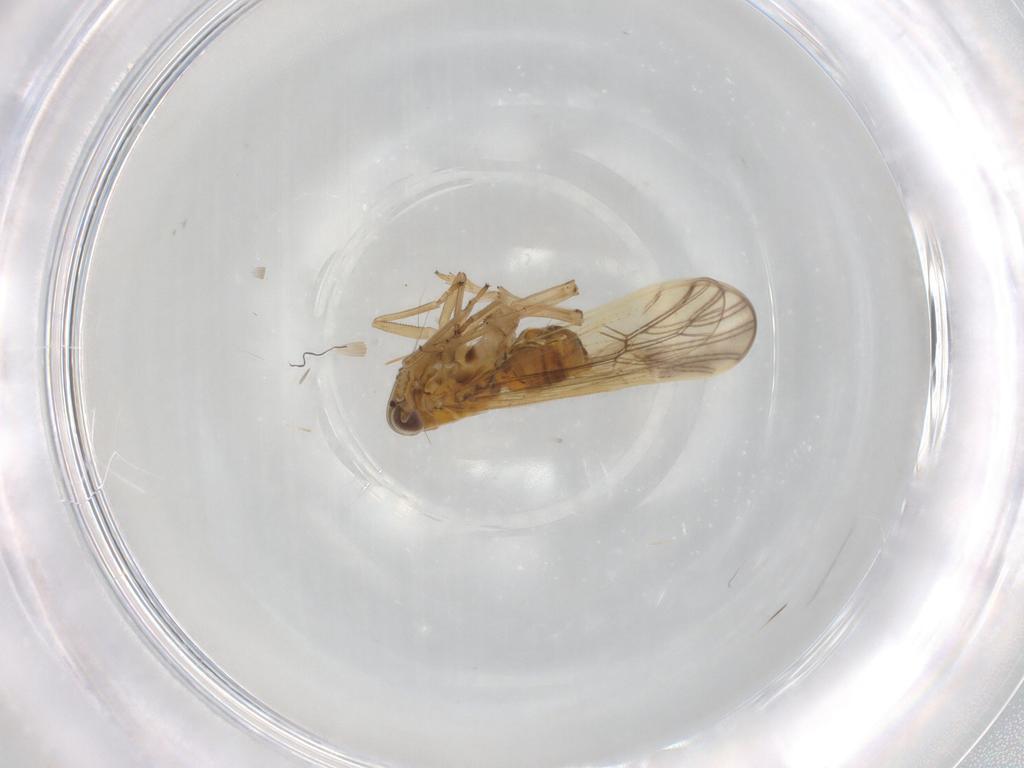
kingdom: Animalia
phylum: Arthropoda
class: Insecta
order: Hemiptera
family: Delphacidae
